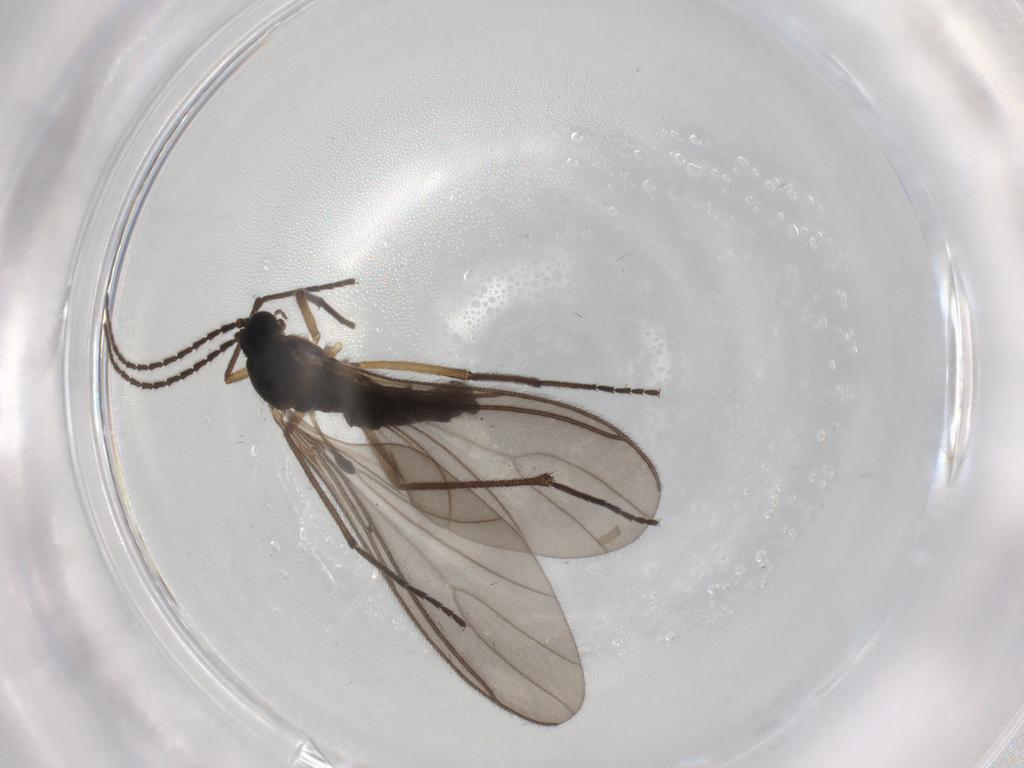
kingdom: Animalia
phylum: Arthropoda
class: Insecta
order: Diptera
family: Sciaridae
